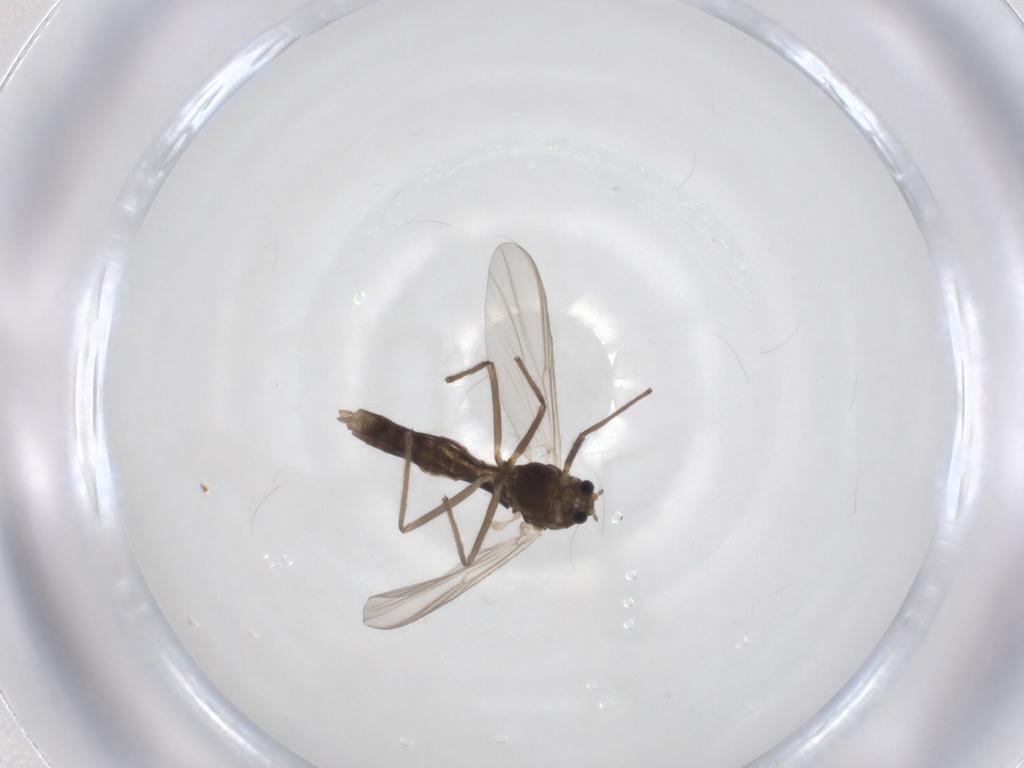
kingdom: Animalia
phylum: Arthropoda
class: Insecta
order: Diptera
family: Chironomidae
